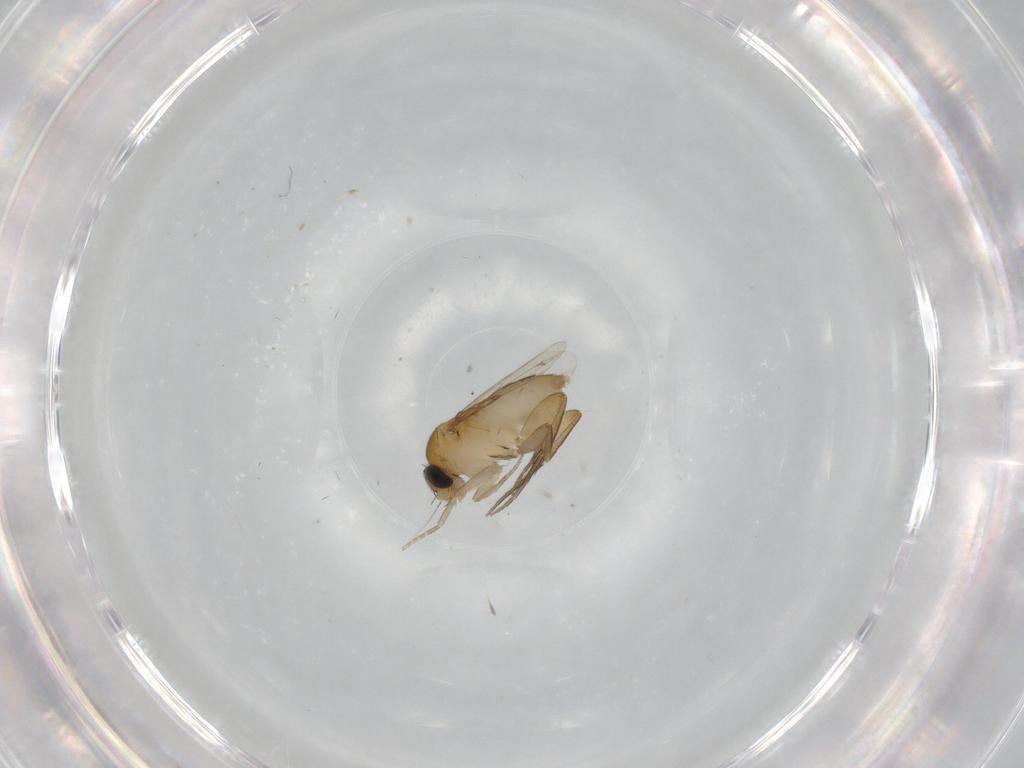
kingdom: Animalia
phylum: Arthropoda
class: Insecta
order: Diptera
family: Phoridae
